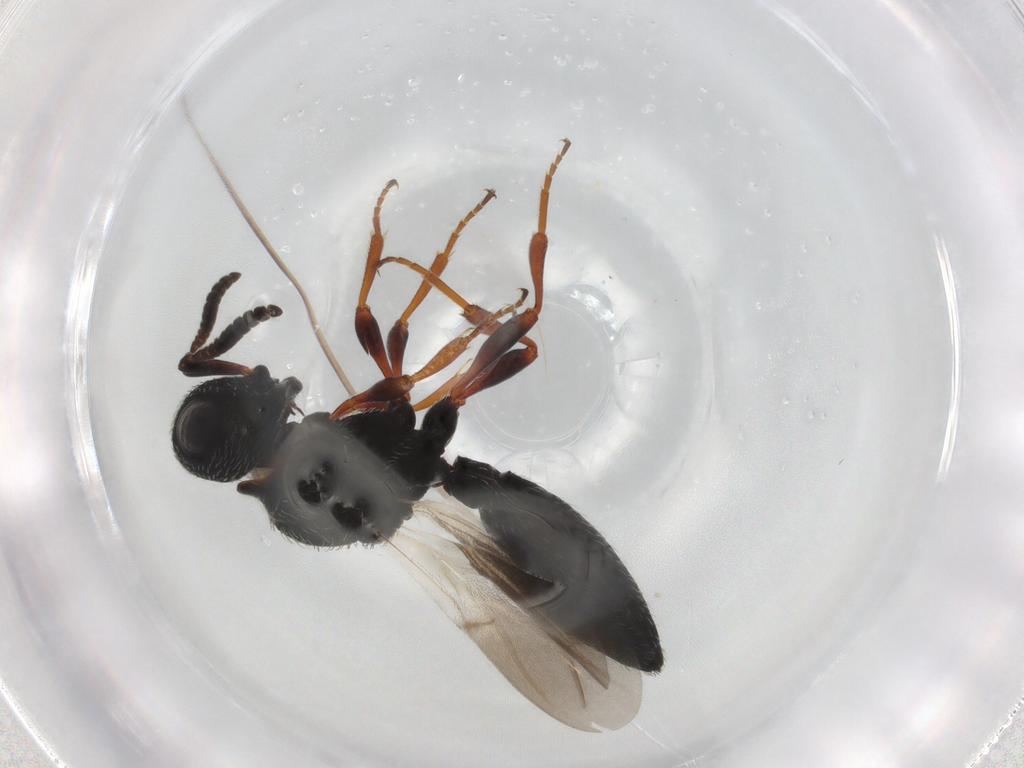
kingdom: Animalia
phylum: Arthropoda
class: Insecta
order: Hymenoptera
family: Scelionidae
